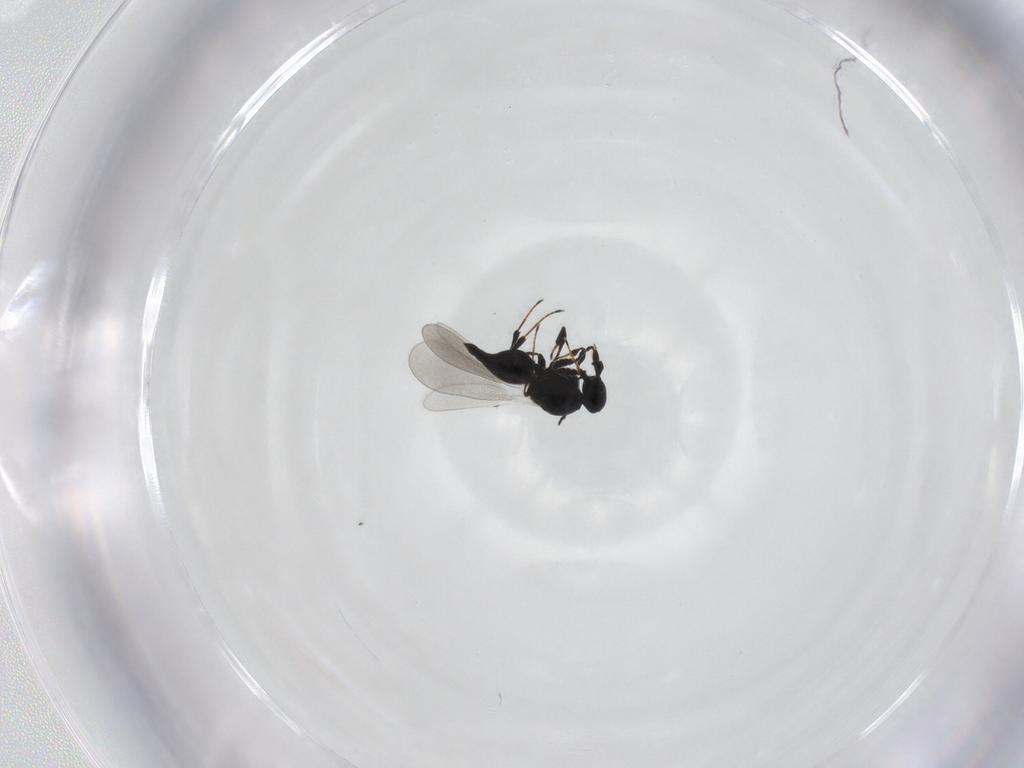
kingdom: Animalia
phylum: Arthropoda
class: Insecta
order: Hymenoptera
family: Platygastridae
